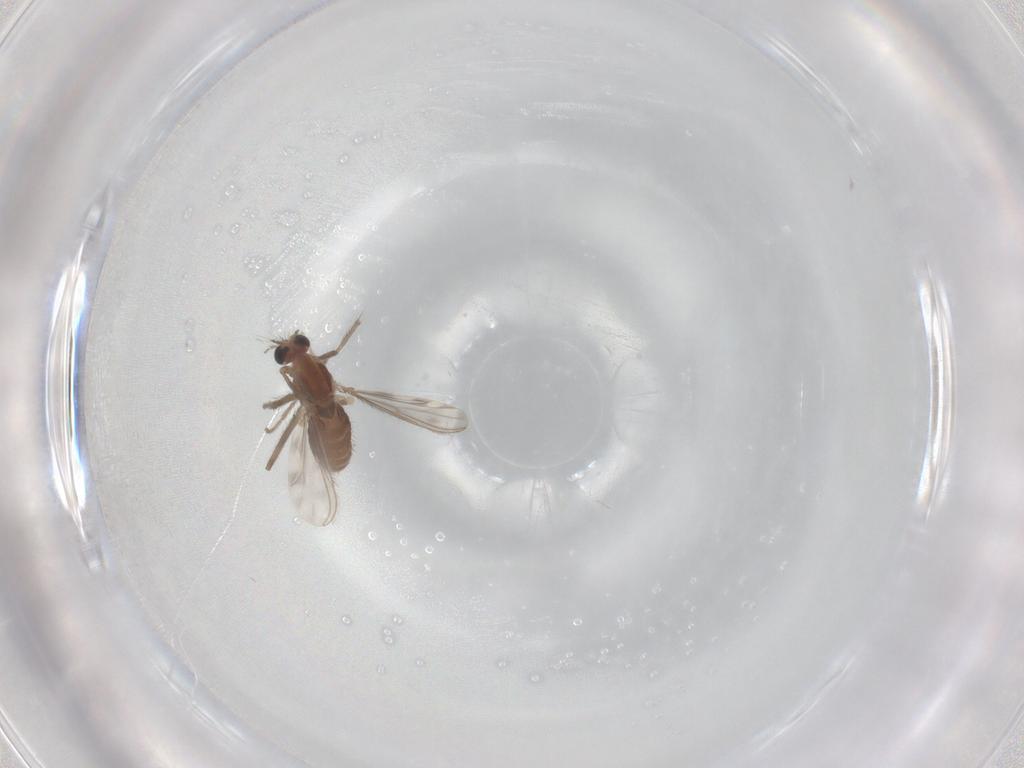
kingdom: Animalia
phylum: Arthropoda
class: Insecta
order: Diptera
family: Chironomidae
